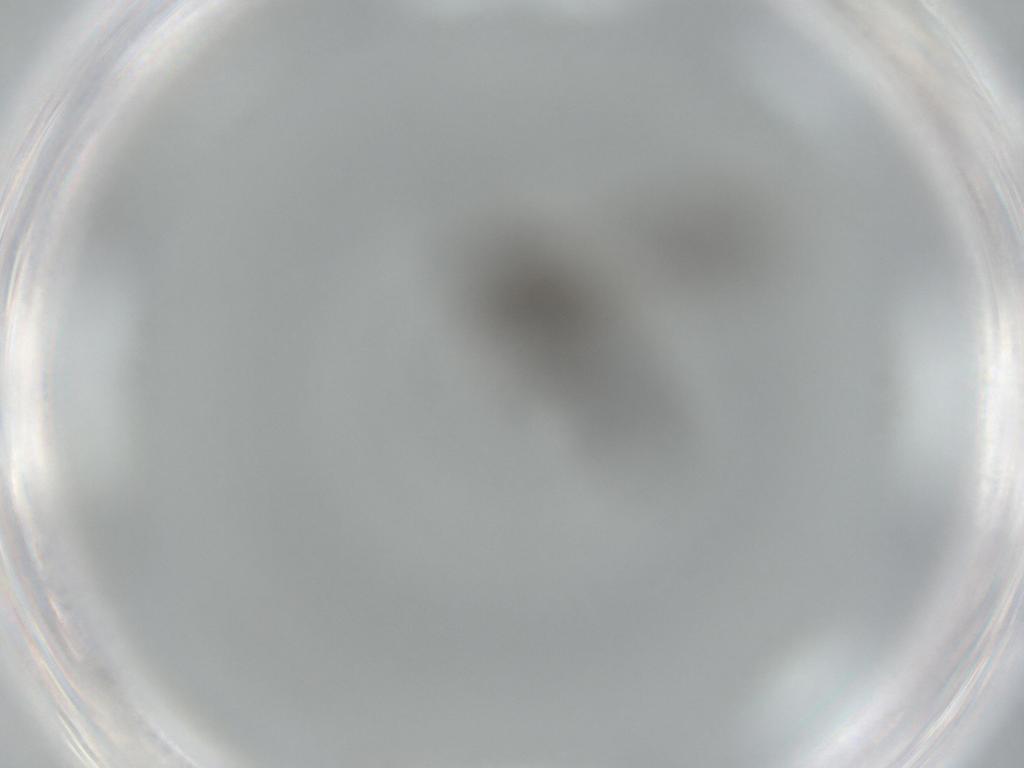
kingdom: Animalia
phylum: Arthropoda
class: Insecta
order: Diptera
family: Sciaridae
